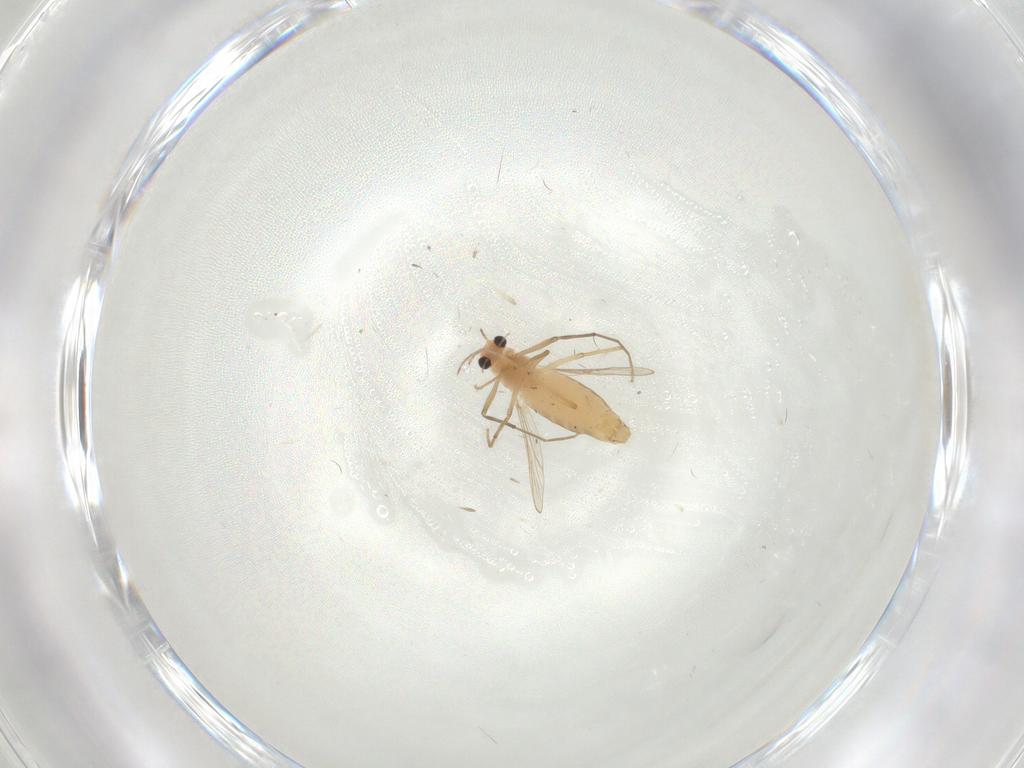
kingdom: Animalia
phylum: Arthropoda
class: Insecta
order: Diptera
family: Chironomidae
